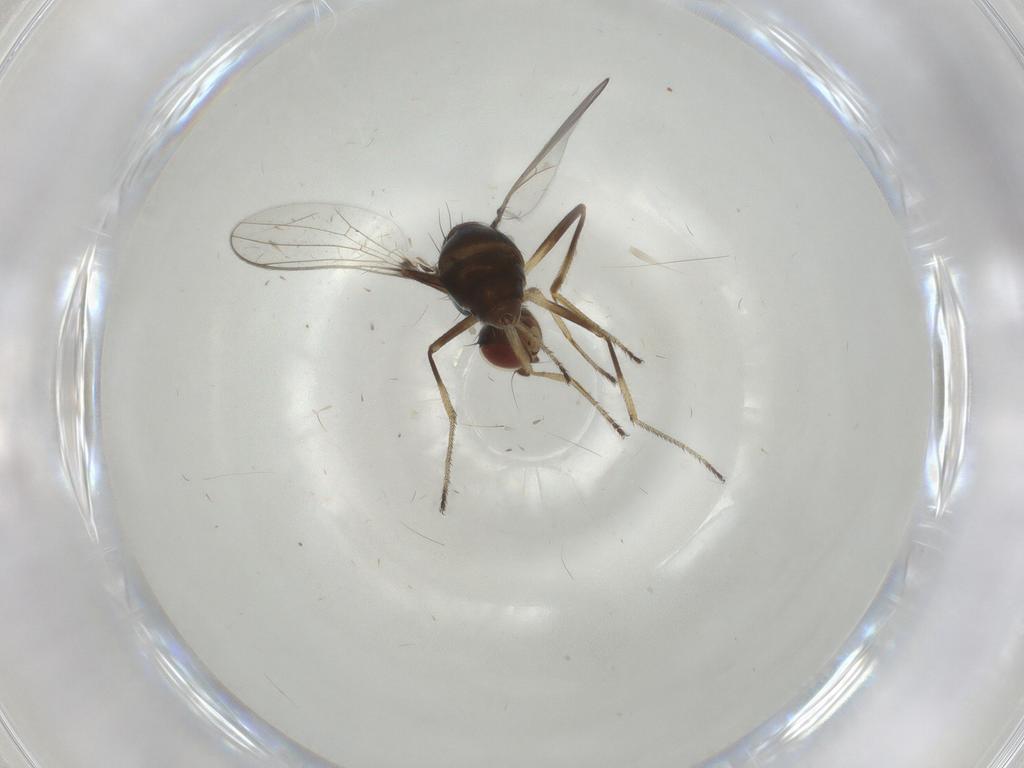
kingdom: Animalia
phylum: Arthropoda
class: Insecta
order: Diptera
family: Sepsidae
